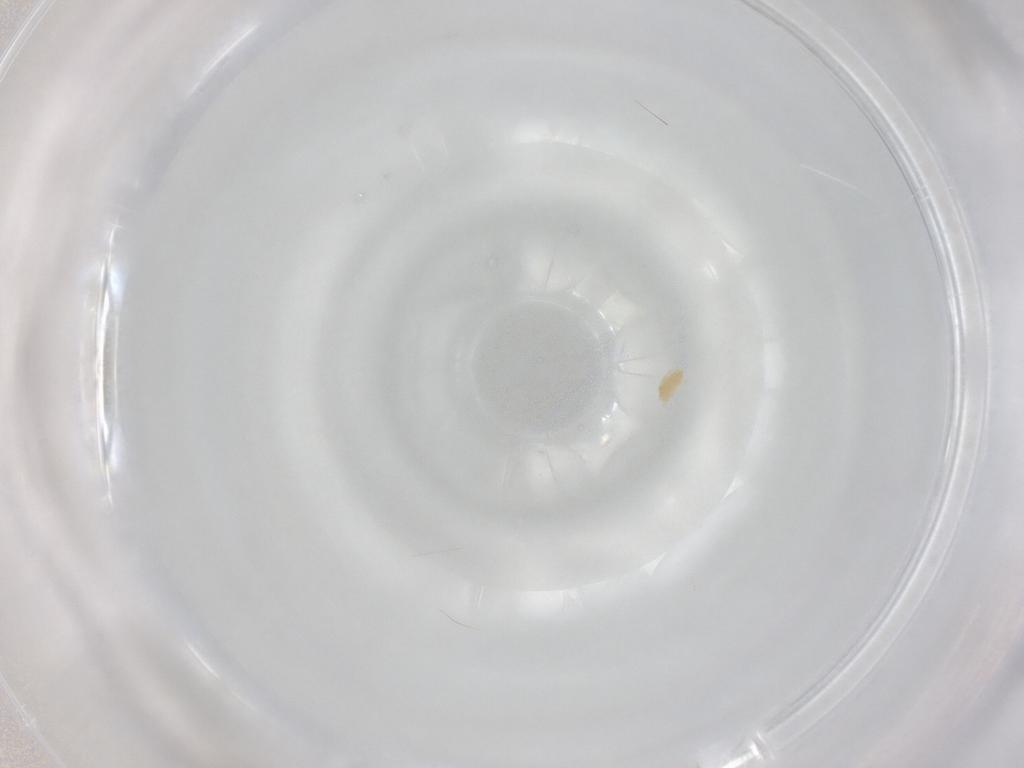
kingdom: Animalia
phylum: Arthropoda
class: Arachnida
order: Trombidiformes
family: Eupodidae
